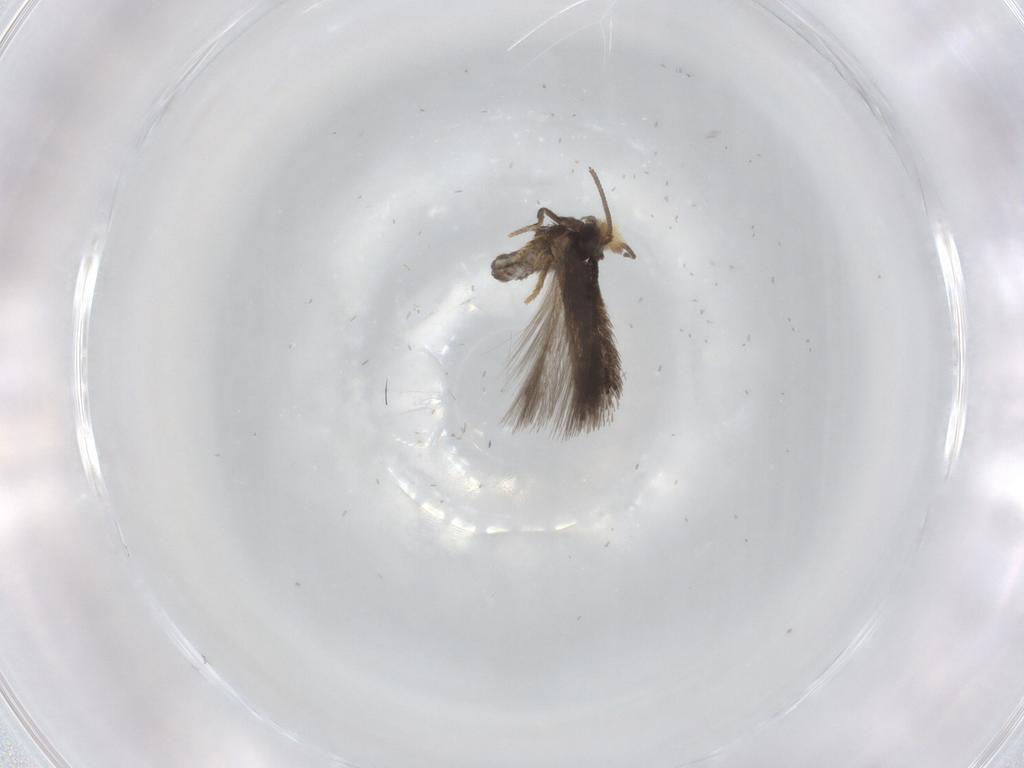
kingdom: Animalia
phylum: Arthropoda
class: Insecta
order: Lepidoptera
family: Nepticulidae
